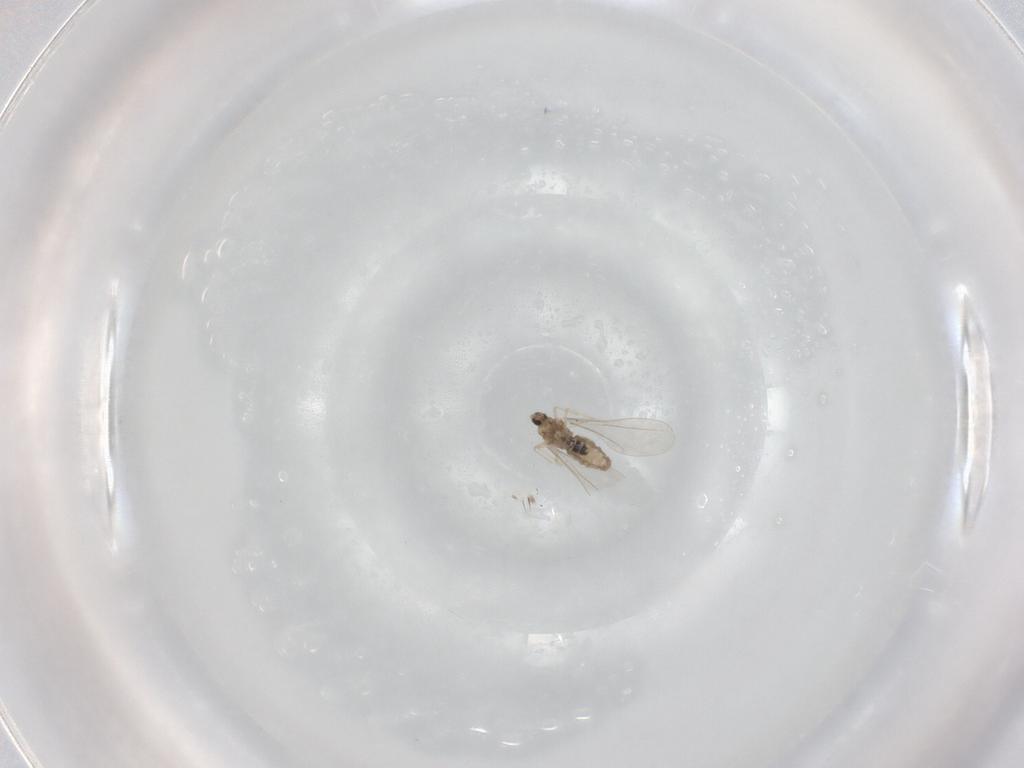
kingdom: Animalia
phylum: Arthropoda
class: Insecta
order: Diptera
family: Cecidomyiidae
